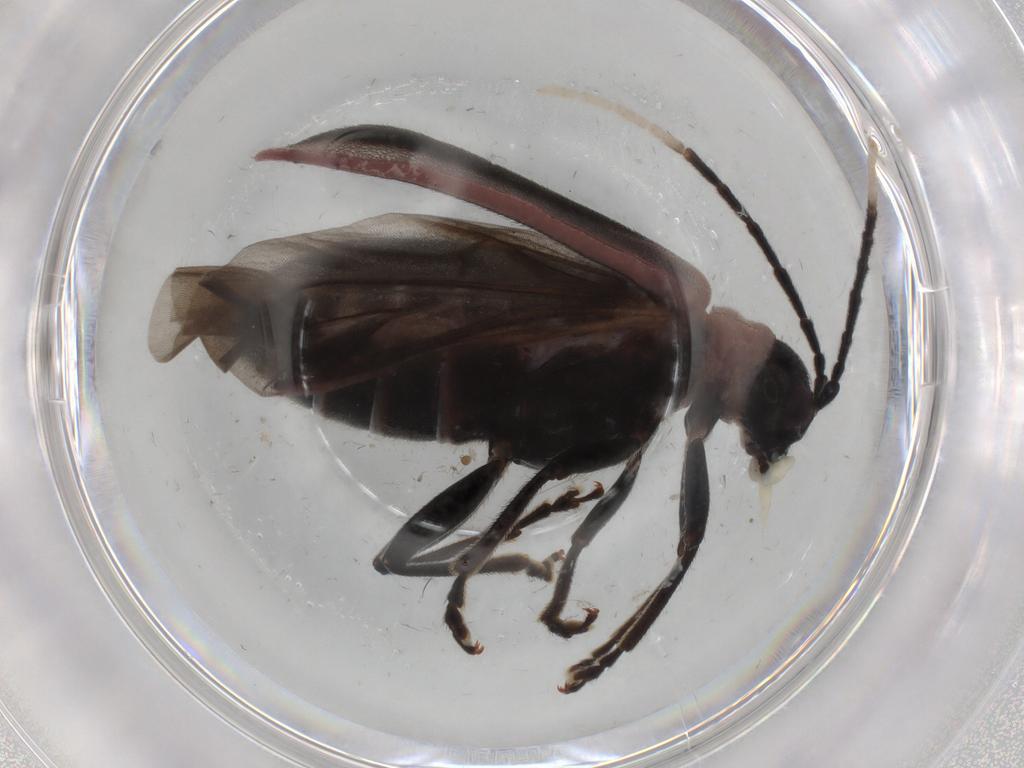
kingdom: Animalia
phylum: Arthropoda
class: Insecta
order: Coleoptera
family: Chrysomelidae
